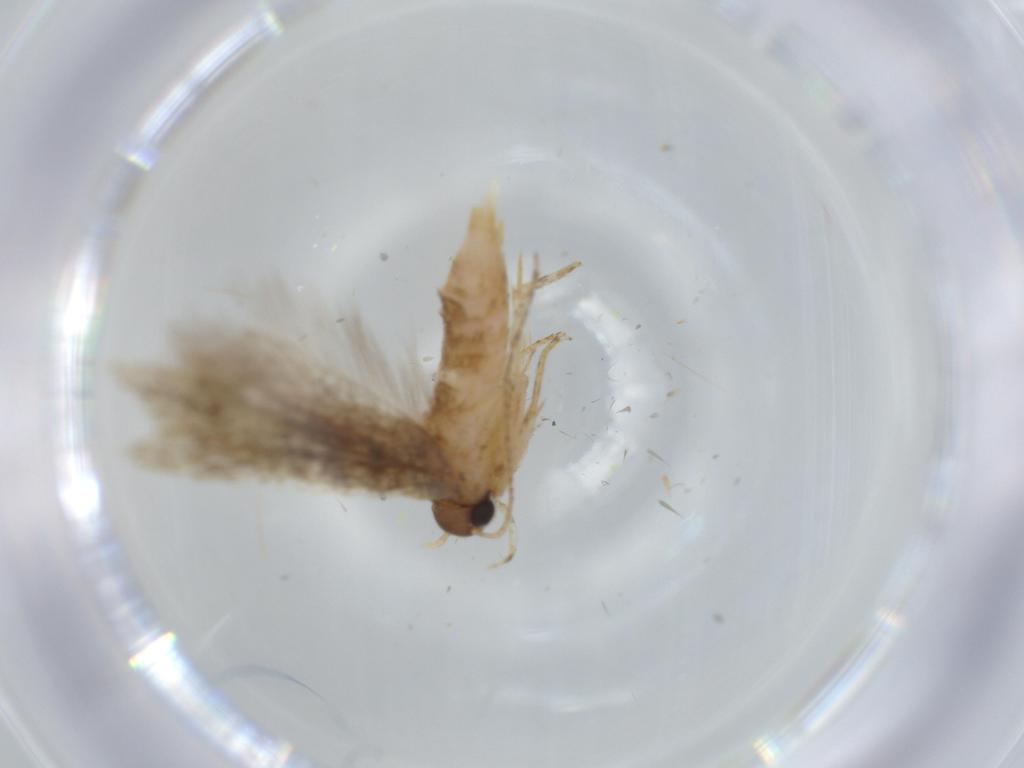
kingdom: Animalia
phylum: Arthropoda
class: Insecta
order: Lepidoptera
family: Gelechiidae
